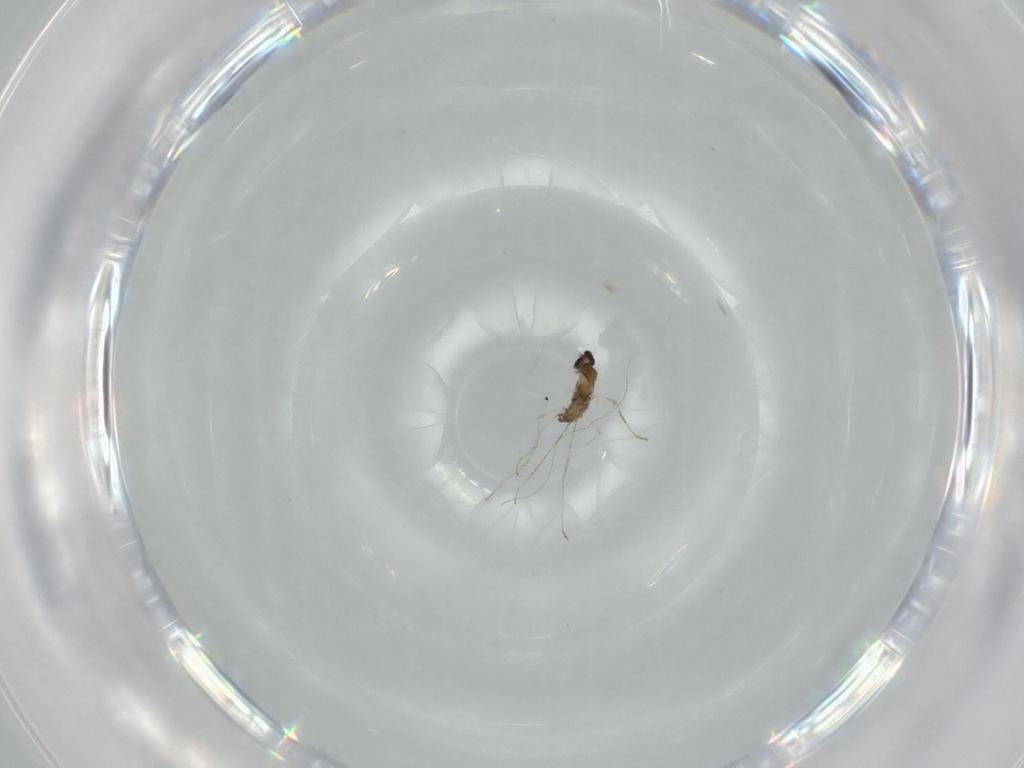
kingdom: Animalia
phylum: Arthropoda
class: Insecta
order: Diptera
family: Cecidomyiidae
